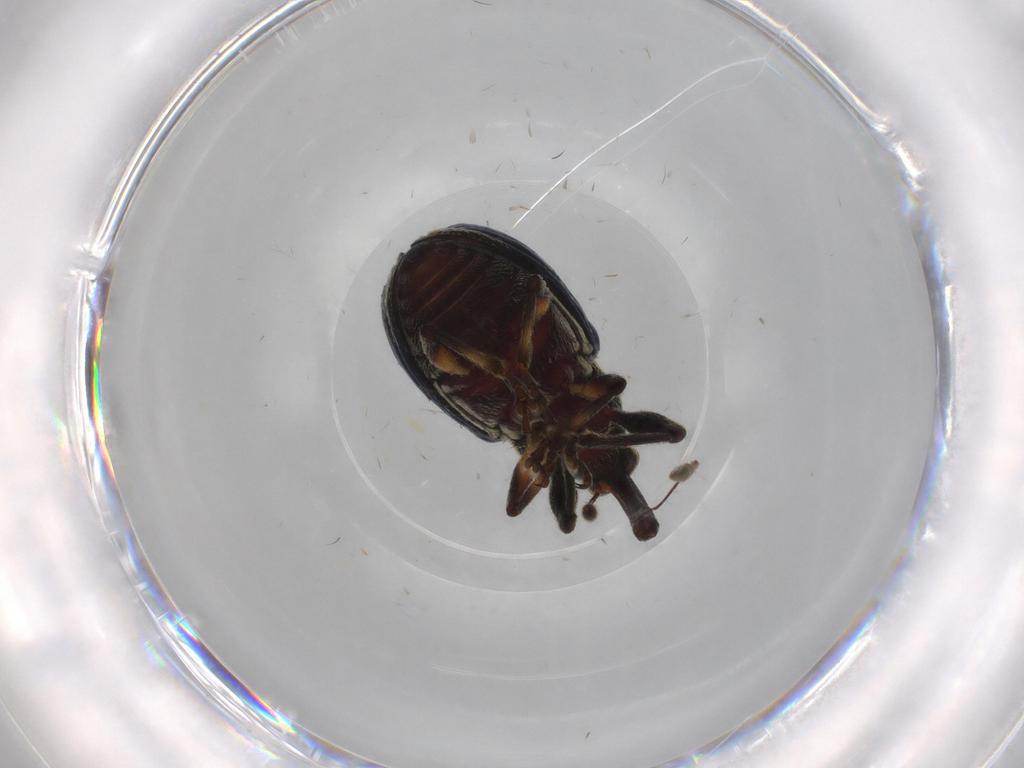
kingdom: Animalia
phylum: Arthropoda
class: Insecta
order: Coleoptera
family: Curculionidae
